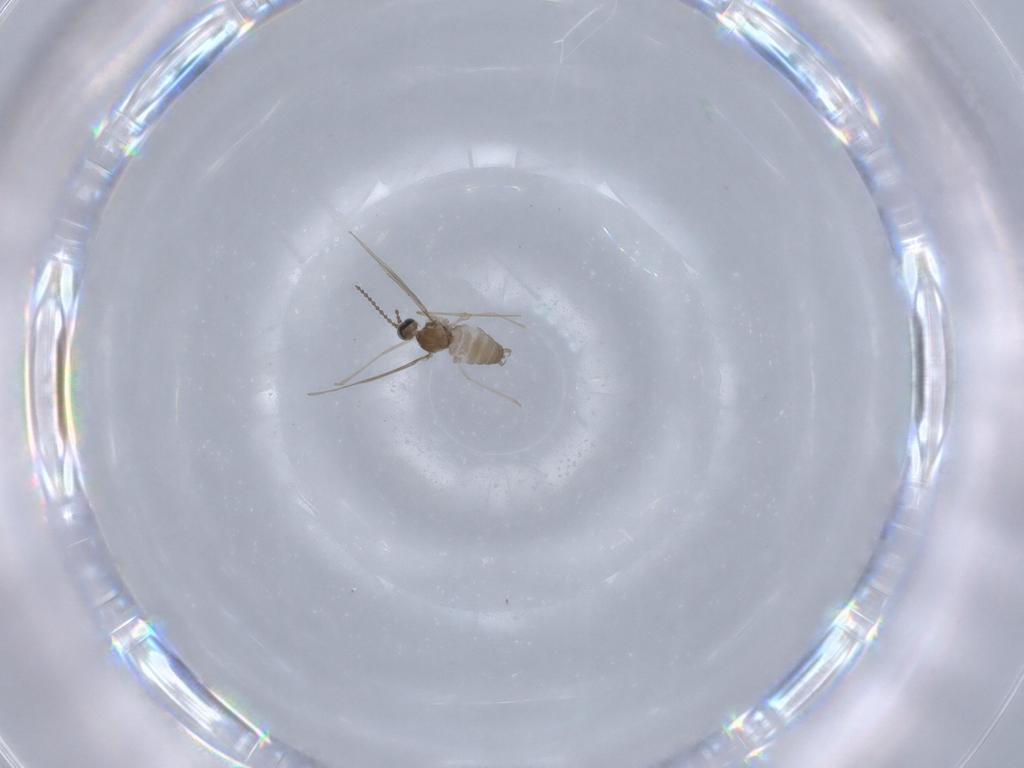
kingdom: Animalia
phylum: Arthropoda
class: Insecta
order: Diptera
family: Cecidomyiidae
